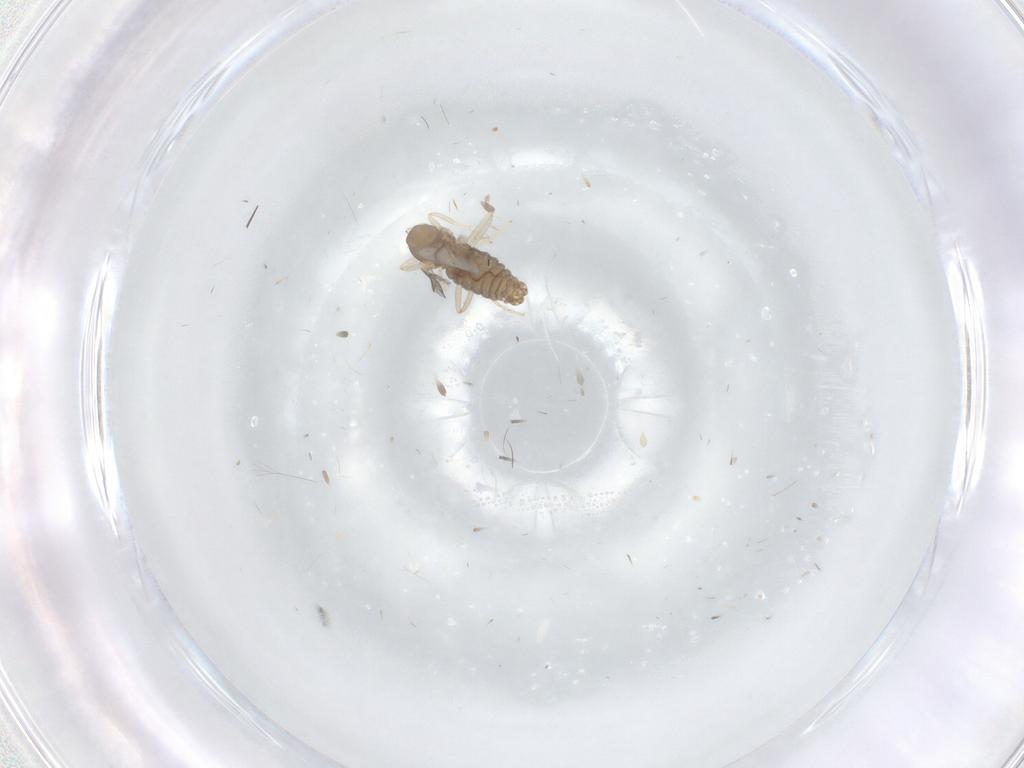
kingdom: Animalia
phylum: Arthropoda
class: Insecta
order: Diptera
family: Cecidomyiidae
